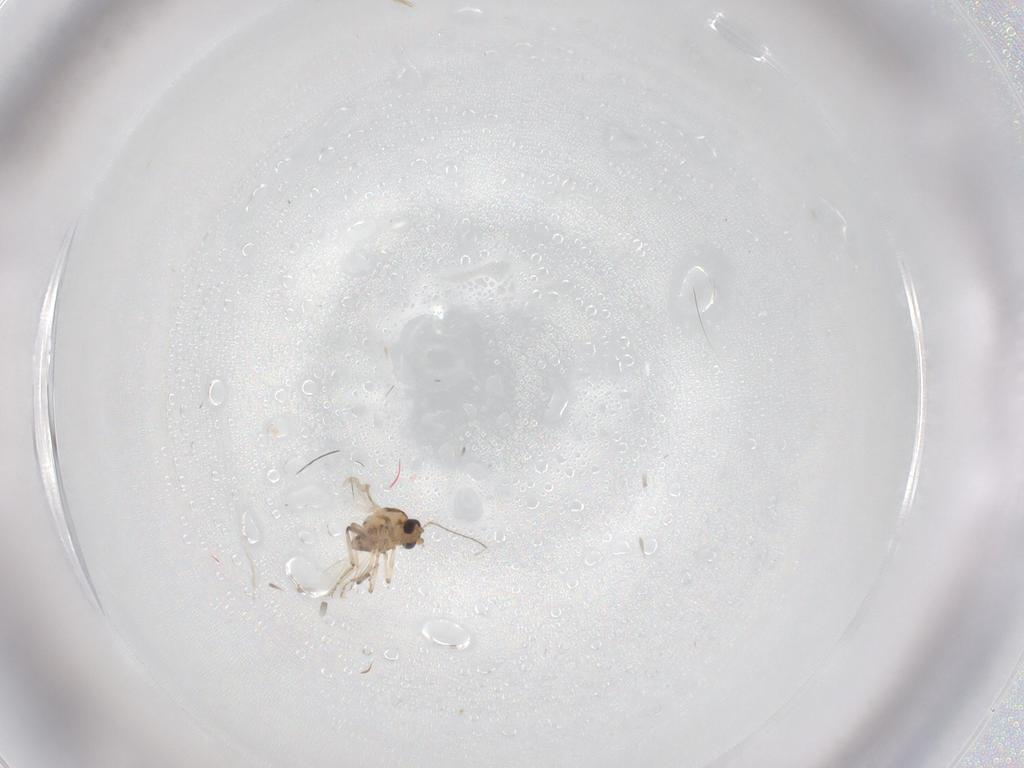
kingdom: Animalia
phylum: Arthropoda
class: Insecta
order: Diptera
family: Ceratopogonidae
